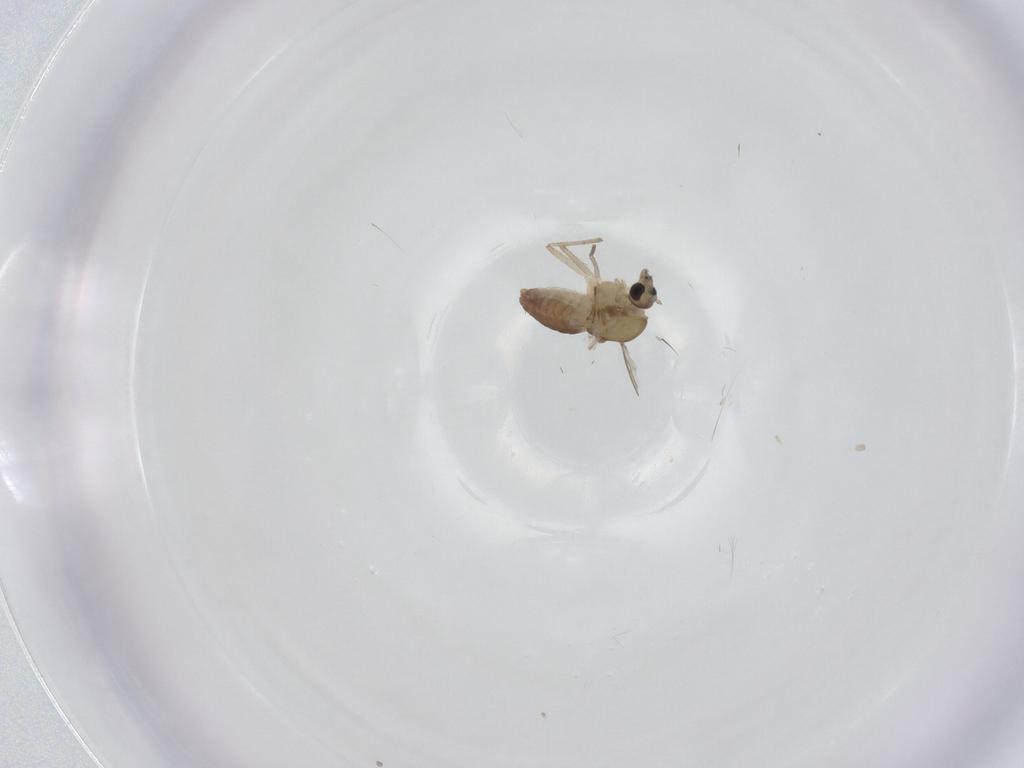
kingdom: Animalia
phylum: Arthropoda
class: Insecta
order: Diptera
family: Chironomidae
